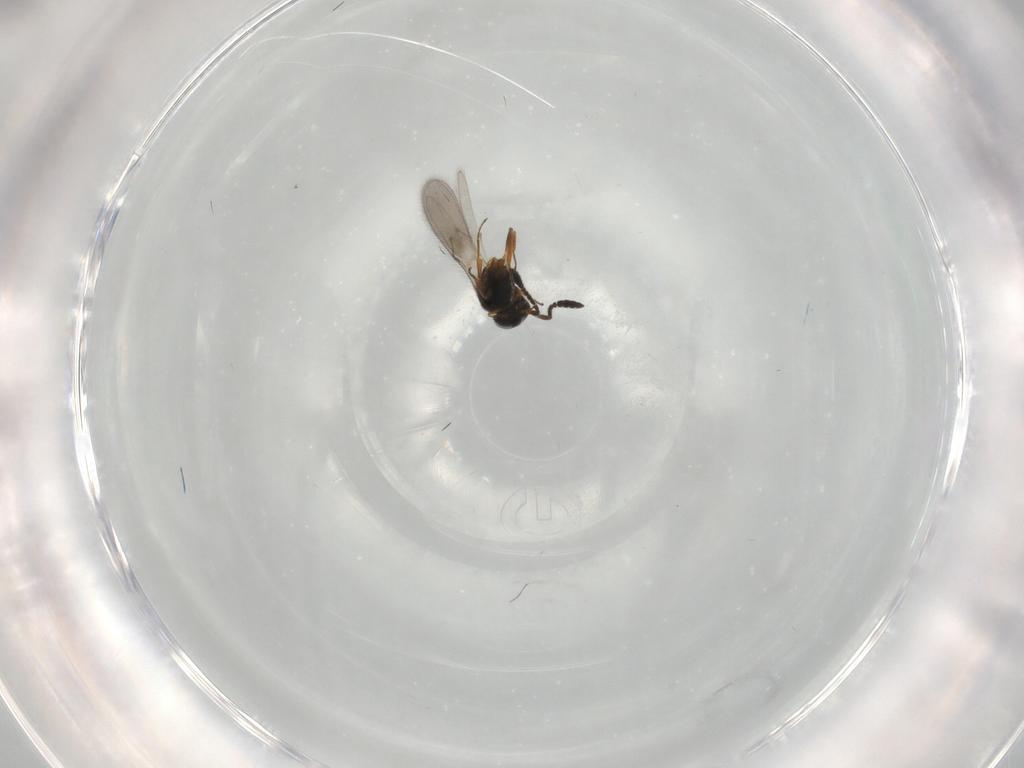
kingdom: Animalia
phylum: Arthropoda
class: Insecta
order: Hymenoptera
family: Scelionidae
